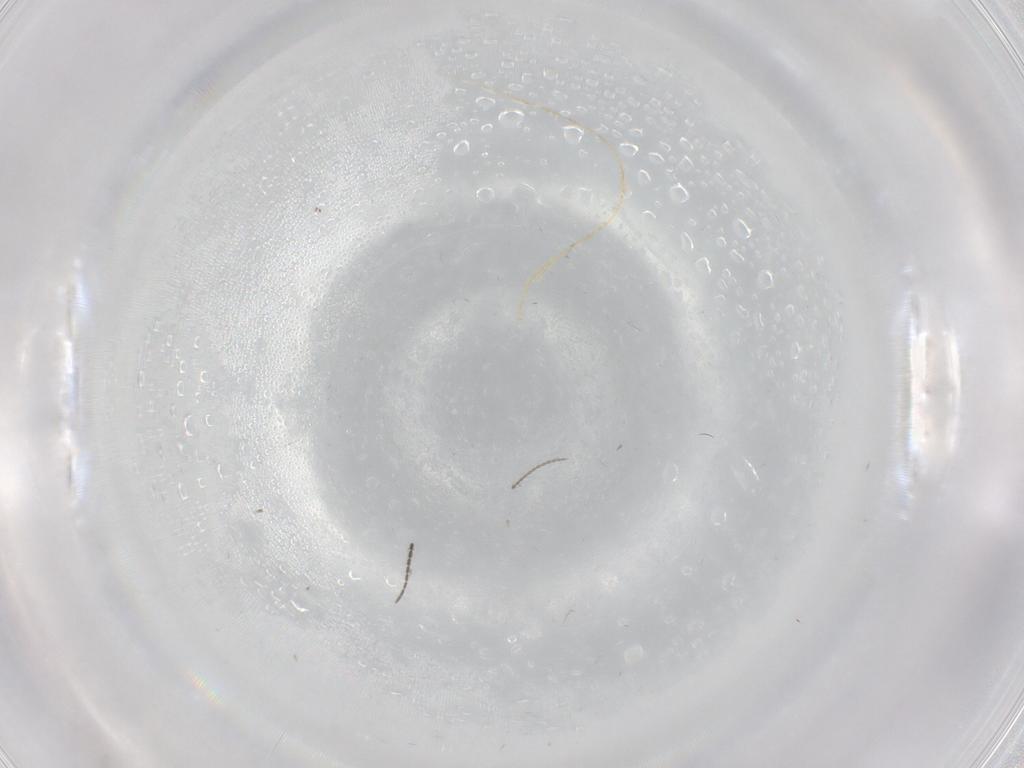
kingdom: Animalia
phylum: Arthropoda
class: Insecta
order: Diptera
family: Sciaridae
